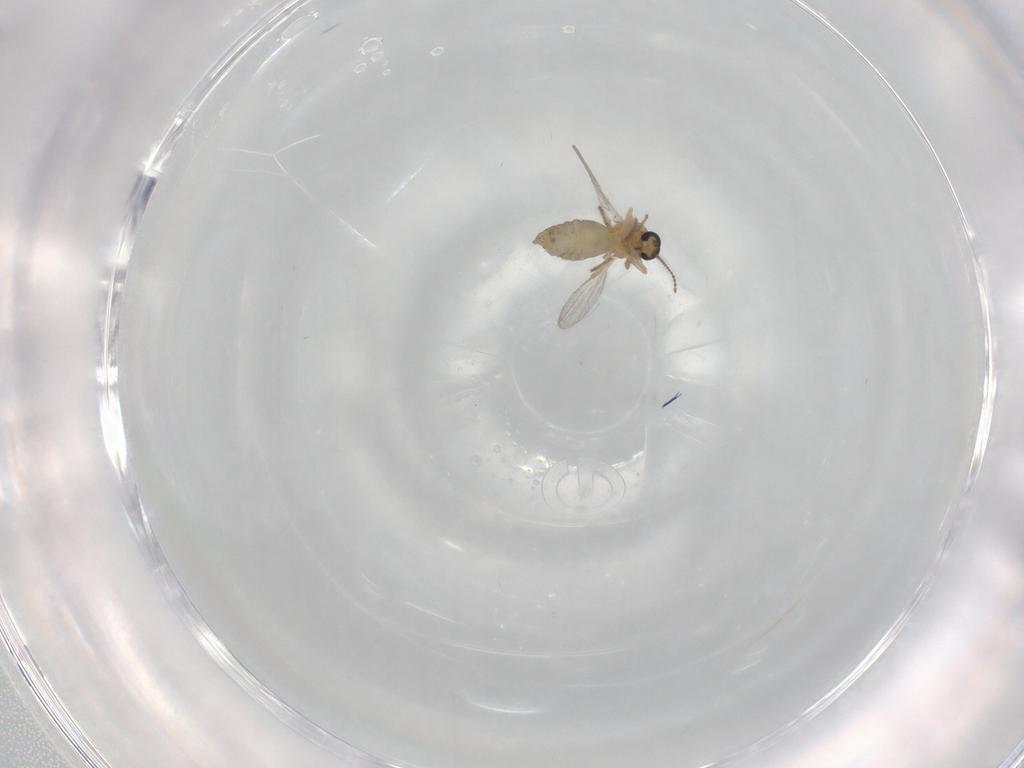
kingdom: Animalia
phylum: Arthropoda
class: Insecta
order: Diptera
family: Ceratopogonidae
